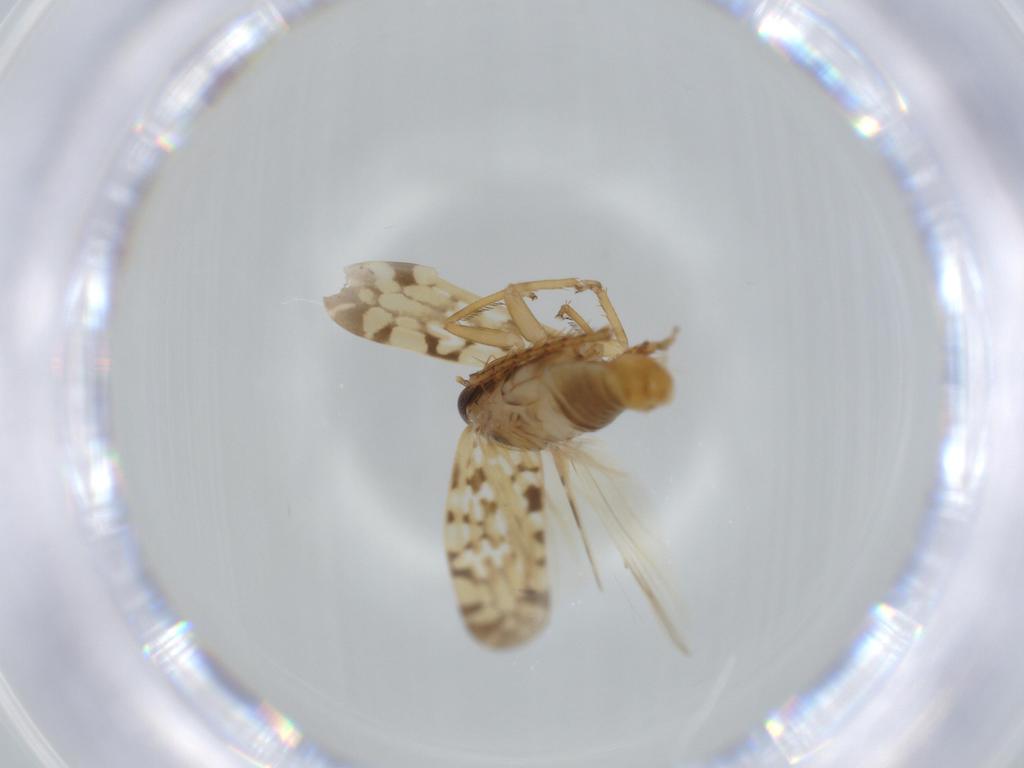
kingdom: Animalia
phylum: Arthropoda
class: Insecta
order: Hemiptera
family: Cicadellidae
